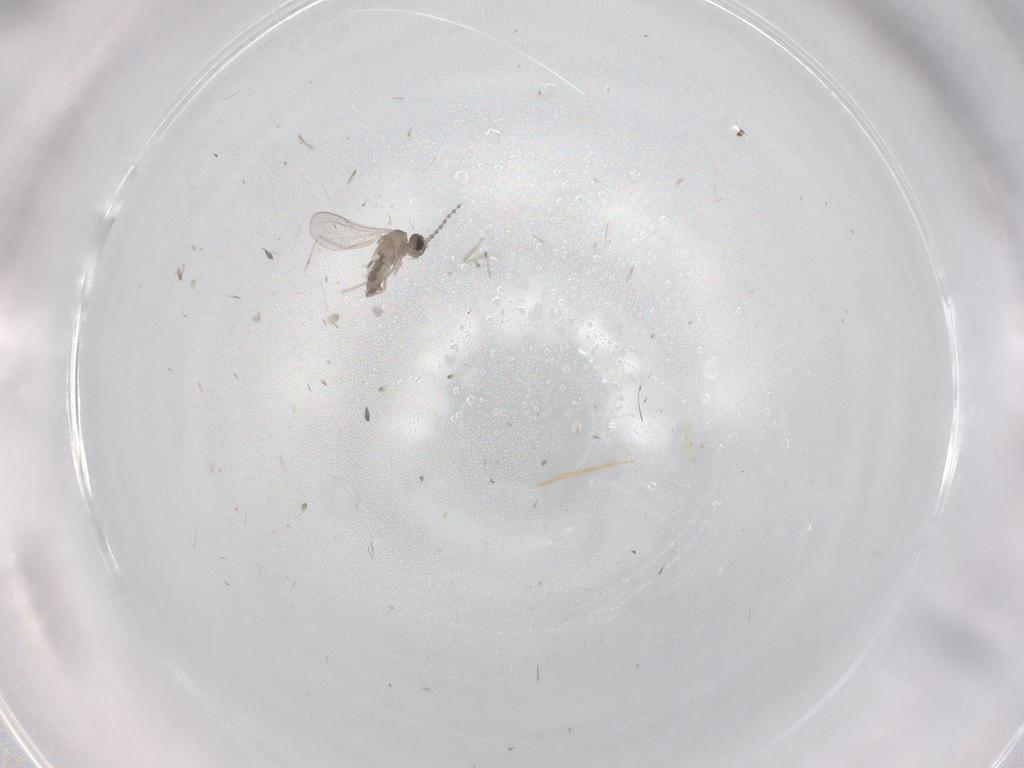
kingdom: Animalia
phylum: Arthropoda
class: Insecta
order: Diptera
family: Cecidomyiidae
